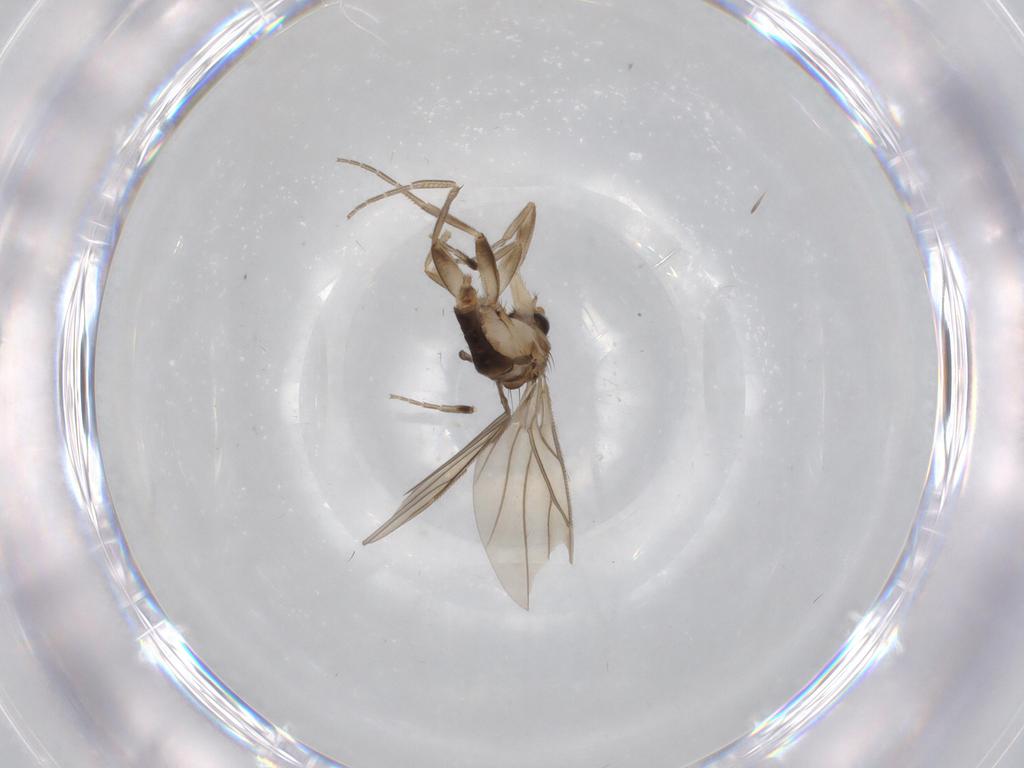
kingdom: Animalia
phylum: Arthropoda
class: Insecta
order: Diptera
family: Phoridae
